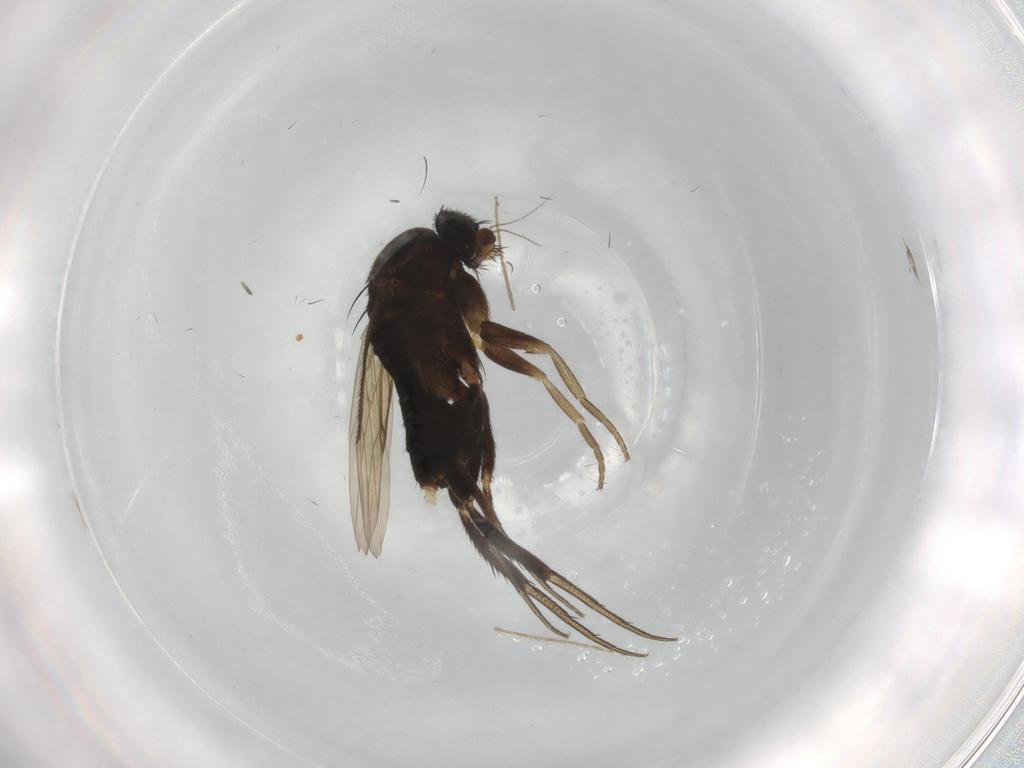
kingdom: Animalia
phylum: Arthropoda
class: Insecta
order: Diptera
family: Phoridae
